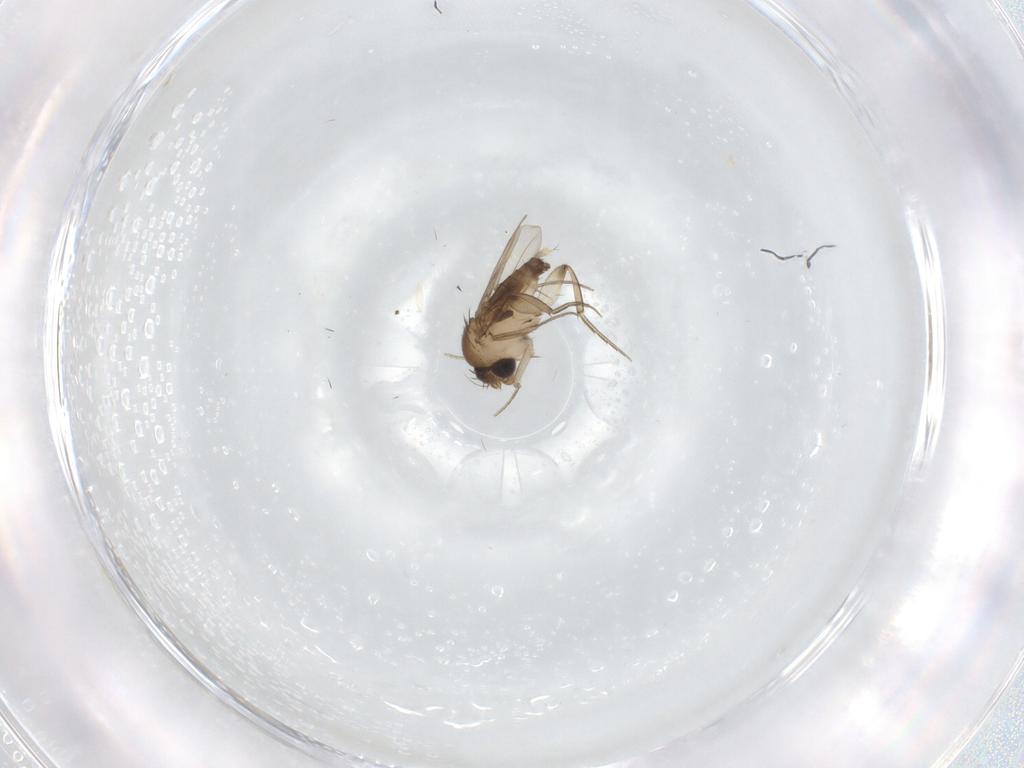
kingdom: Animalia
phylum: Arthropoda
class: Insecta
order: Diptera
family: Phoridae
